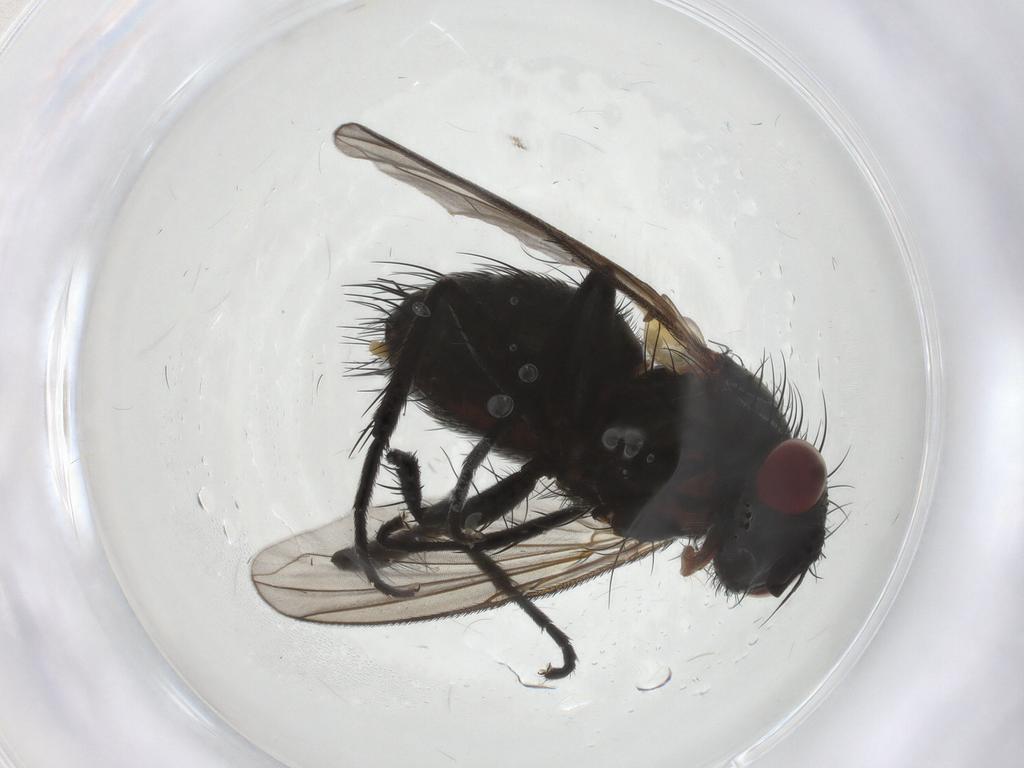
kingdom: Animalia
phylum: Arthropoda
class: Insecta
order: Diptera
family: Tachinidae
